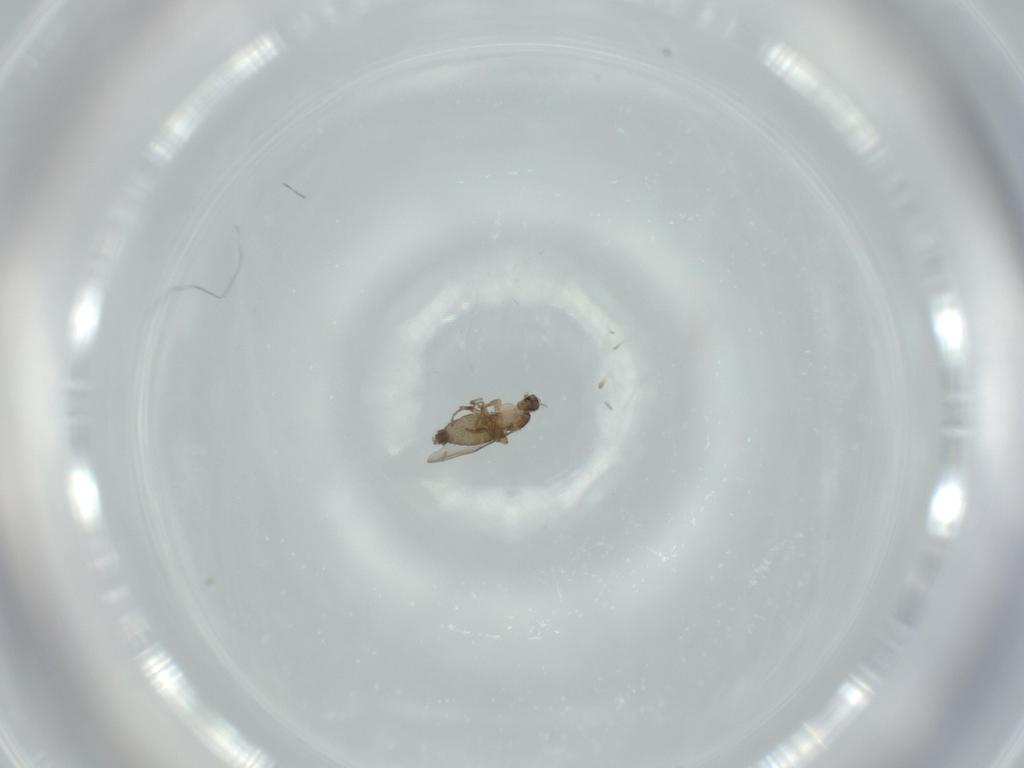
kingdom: Animalia
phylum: Arthropoda
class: Insecta
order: Diptera
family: Phoridae
